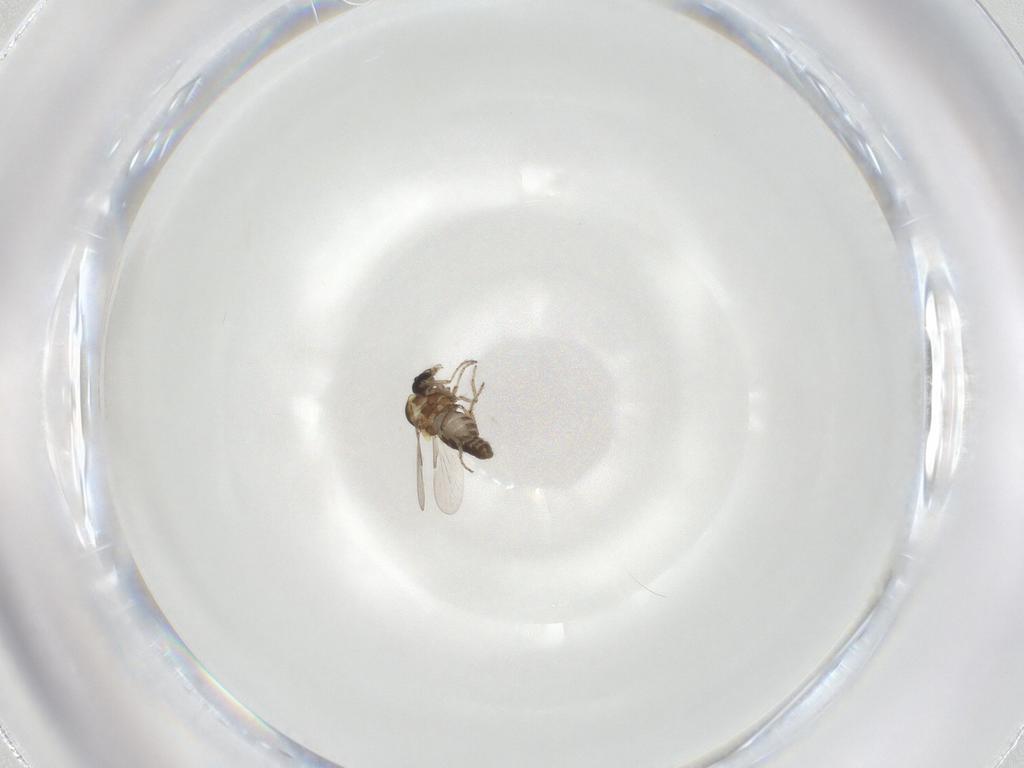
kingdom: Animalia
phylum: Arthropoda
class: Insecta
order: Diptera
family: Ceratopogonidae
